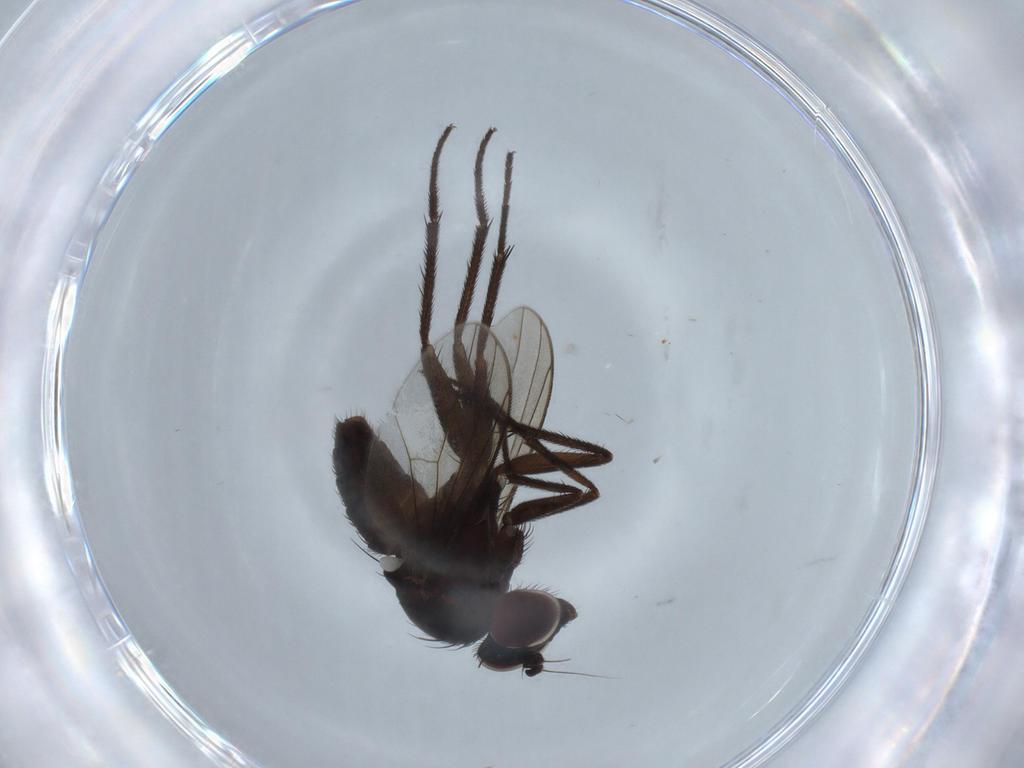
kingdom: Animalia
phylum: Arthropoda
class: Insecta
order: Diptera
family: Dolichopodidae
